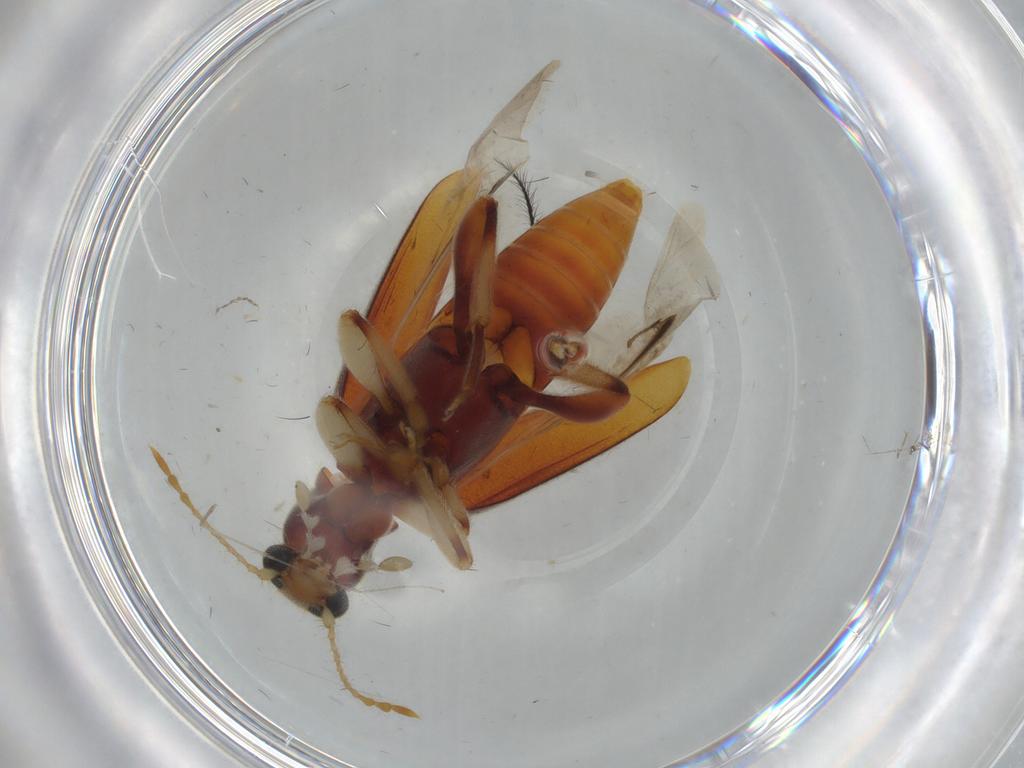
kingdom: Animalia
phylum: Arthropoda
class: Insecta
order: Coleoptera
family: Anthicidae
